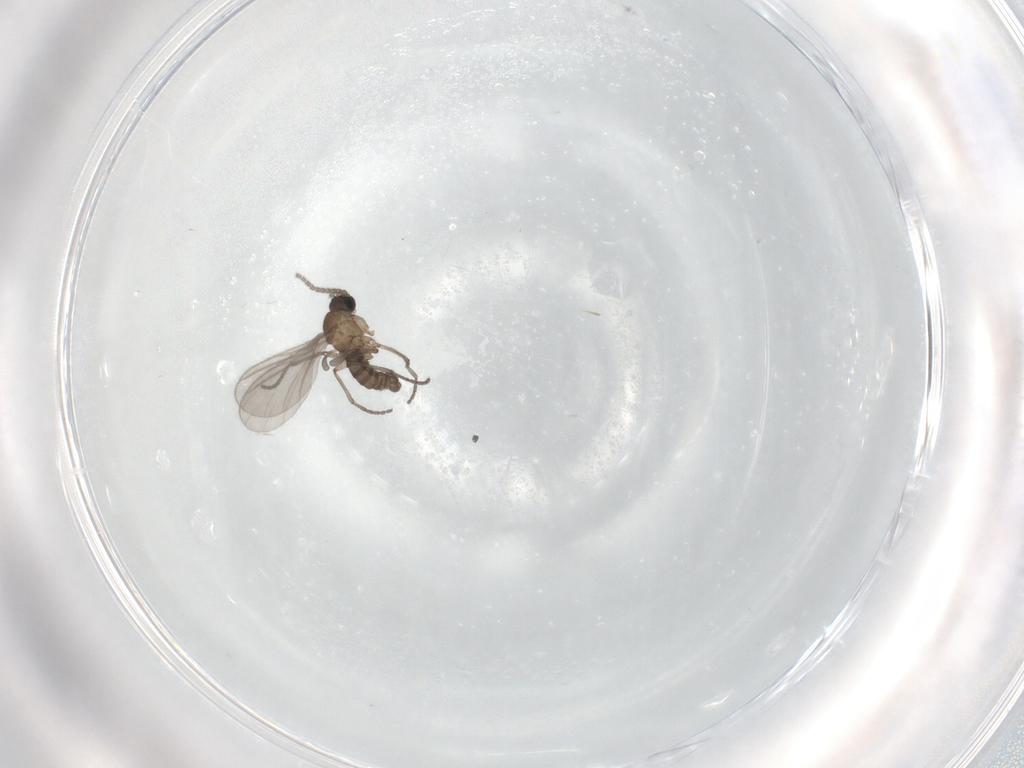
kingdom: Animalia
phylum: Arthropoda
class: Insecta
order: Diptera
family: Sciaridae
